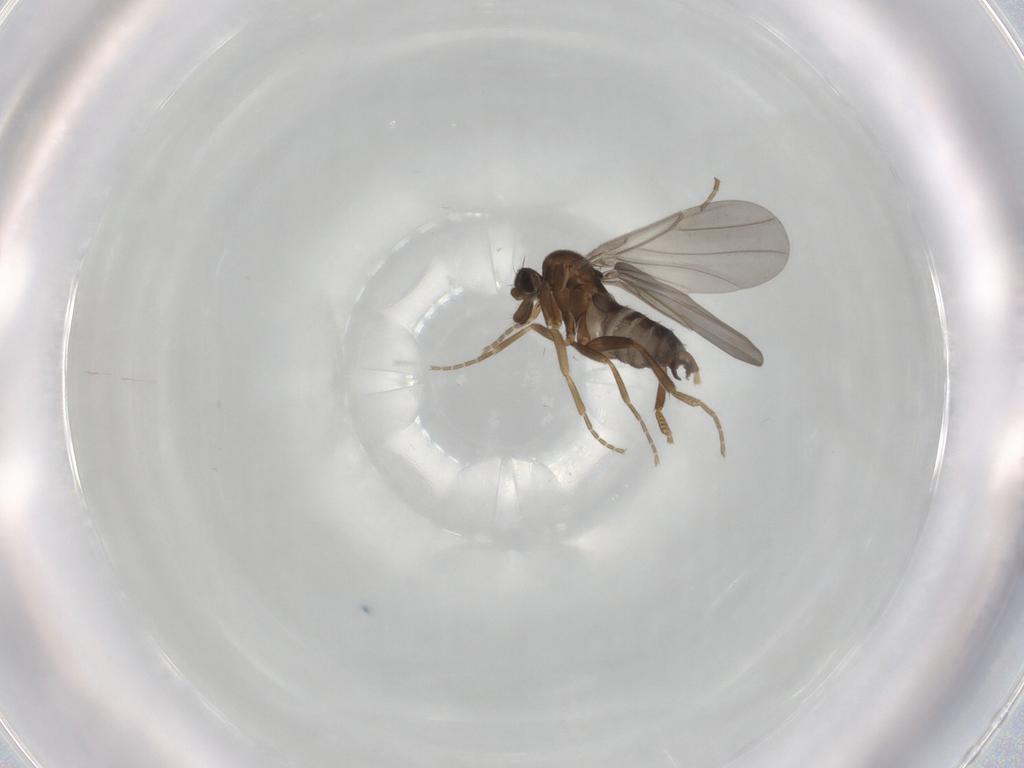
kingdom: Animalia
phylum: Arthropoda
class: Insecta
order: Diptera
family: Phoridae
